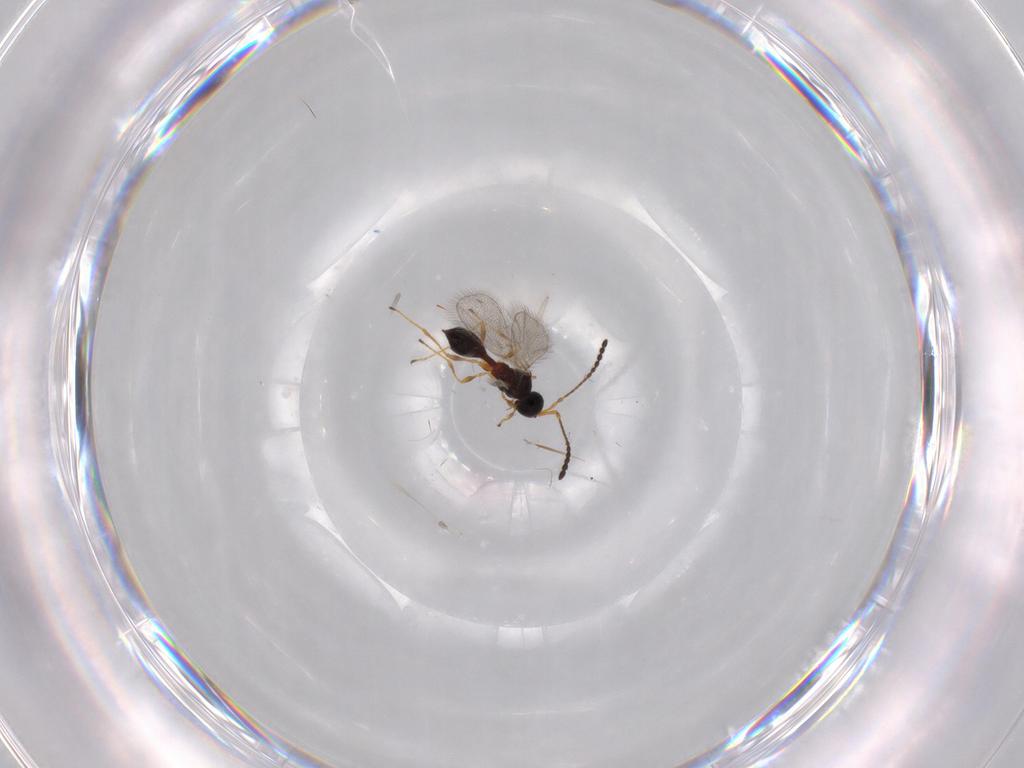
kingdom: Animalia
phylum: Arthropoda
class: Insecta
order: Hymenoptera
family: Diapriidae
